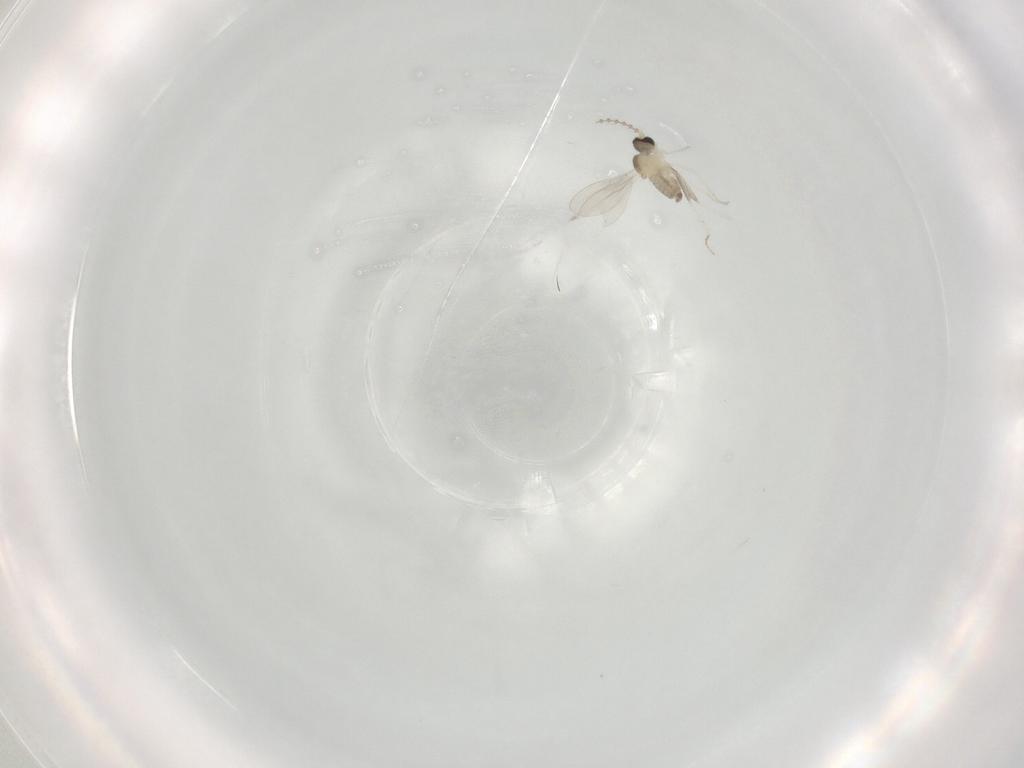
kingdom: Animalia
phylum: Arthropoda
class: Insecta
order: Diptera
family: Cecidomyiidae
